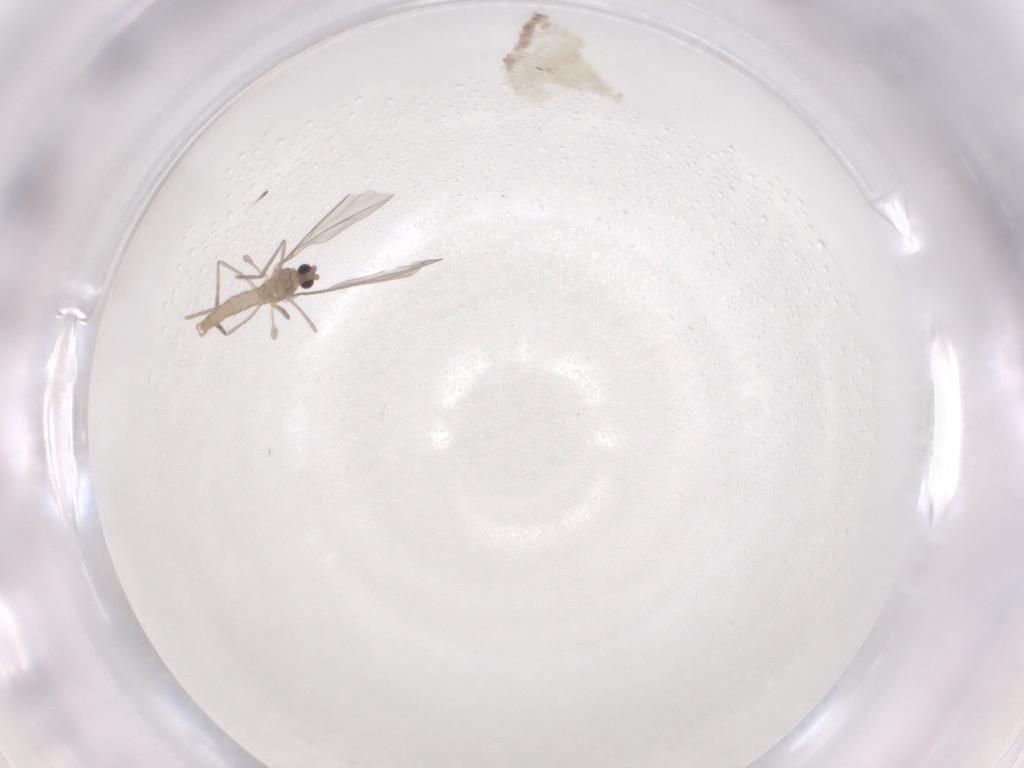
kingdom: Animalia
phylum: Arthropoda
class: Insecta
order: Diptera
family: Cecidomyiidae
